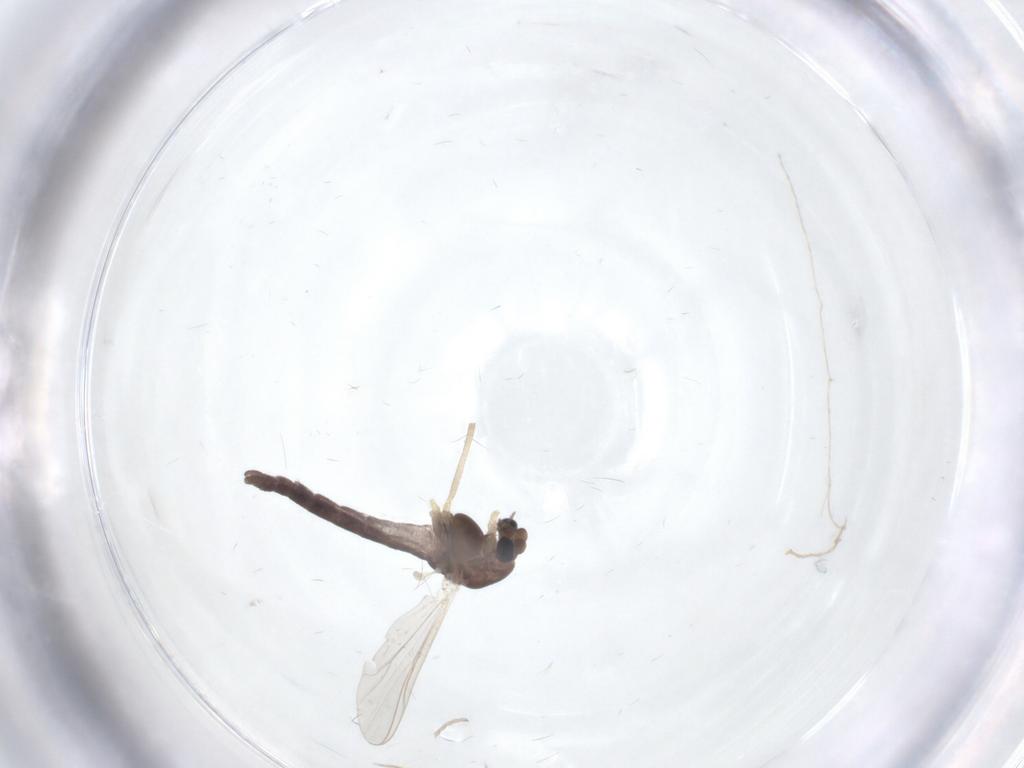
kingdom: Animalia
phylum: Arthropoda
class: Insecta
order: Diptera
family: Chironomidae
